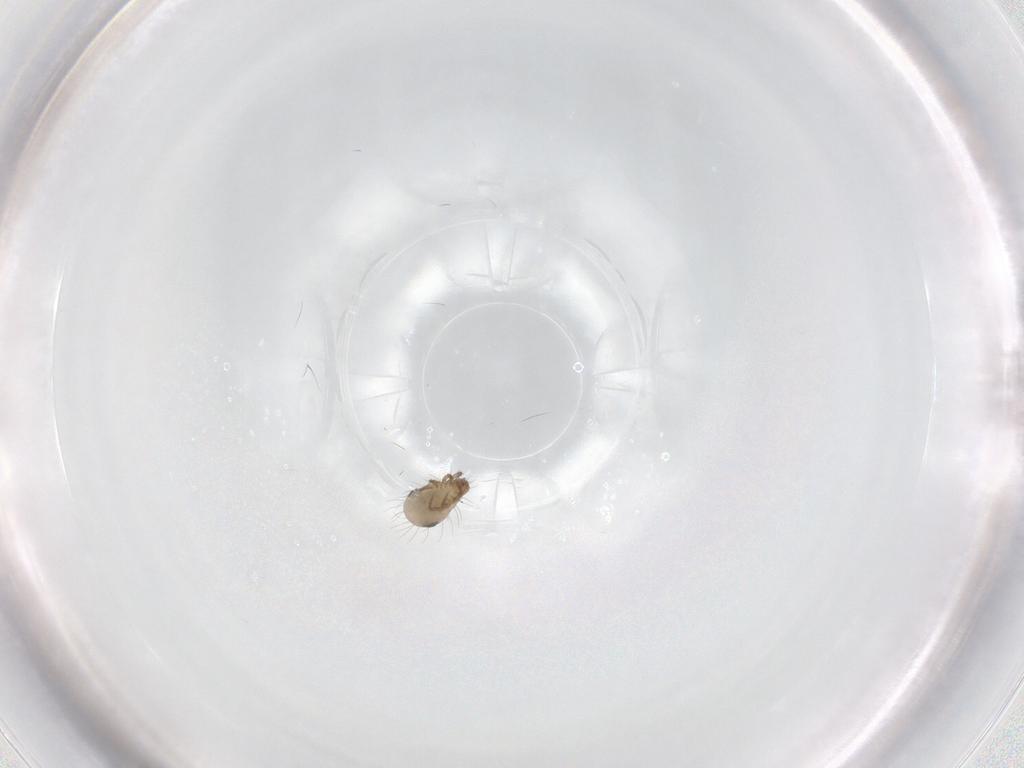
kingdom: Animalia
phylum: Arthropoda
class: Arachnida
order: Sarcoptiformes
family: Ceratozetidae
